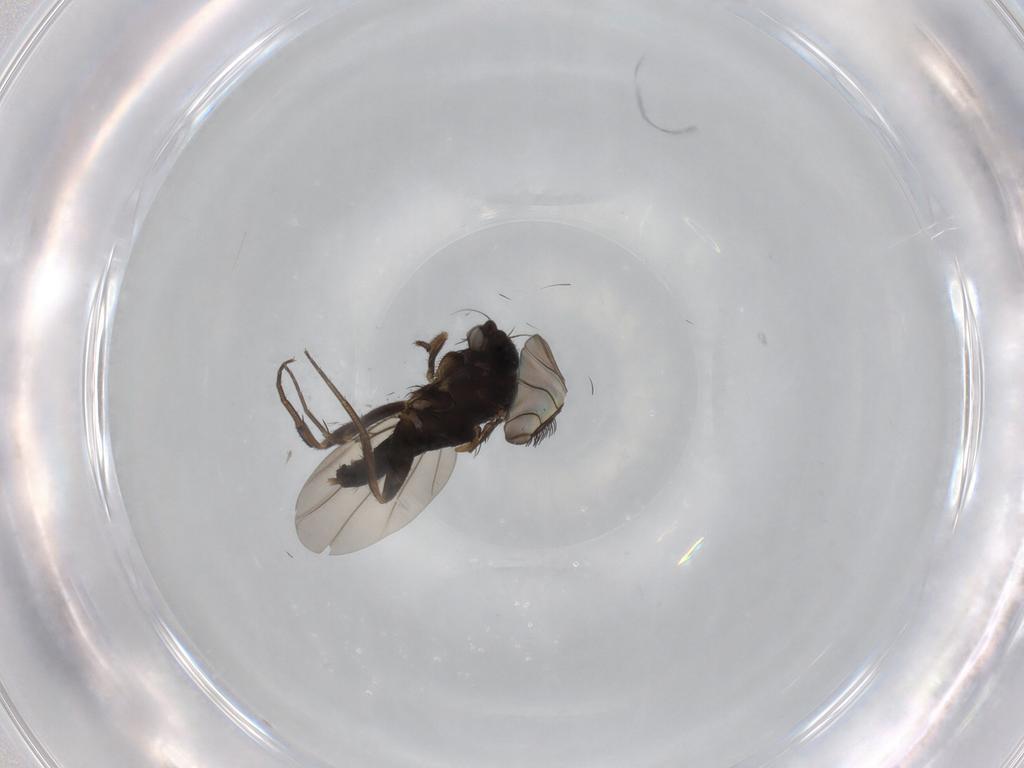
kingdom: Animalia
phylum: Arthropoda
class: Insecta
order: Diptera
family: Phoridae
